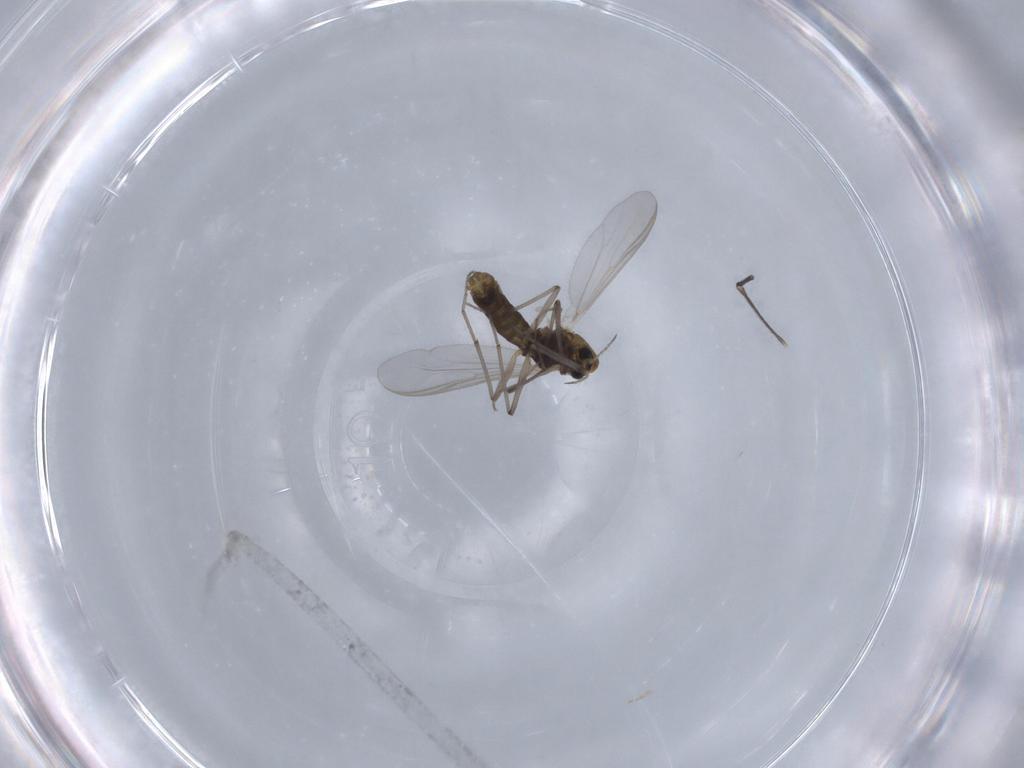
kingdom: Animalia
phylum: Arthropoda
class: Insecta
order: Diptera
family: Chironomidae
